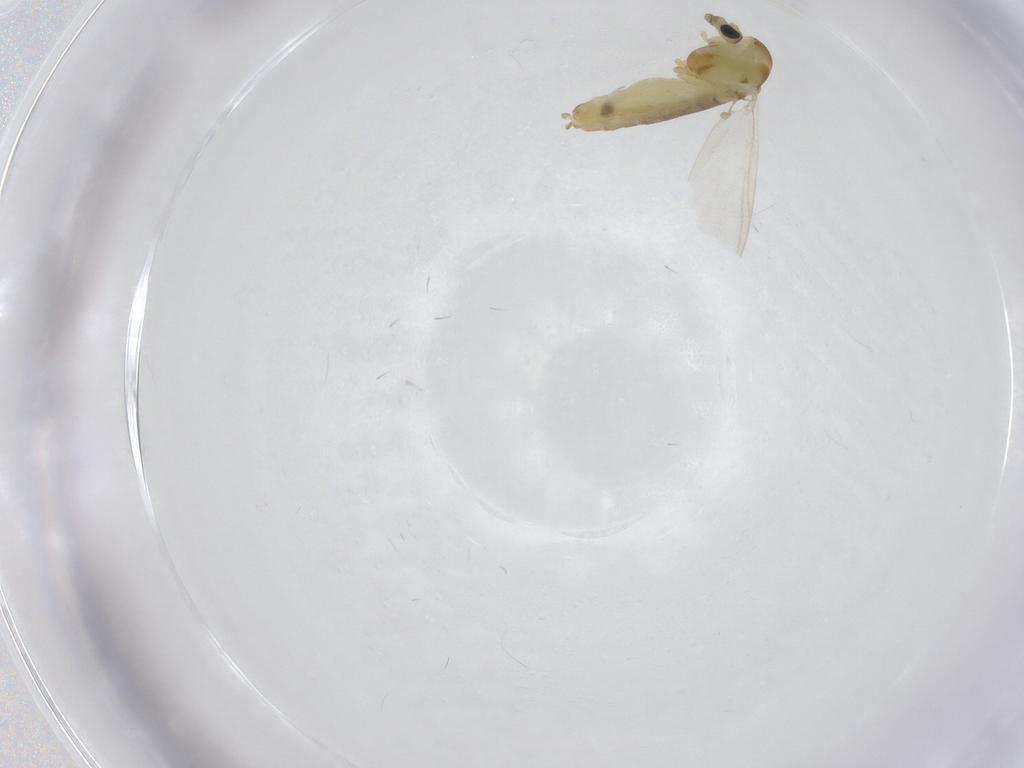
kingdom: Animalia
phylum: Arthropoda
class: Insecta
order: Diptera
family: Chironomidae
